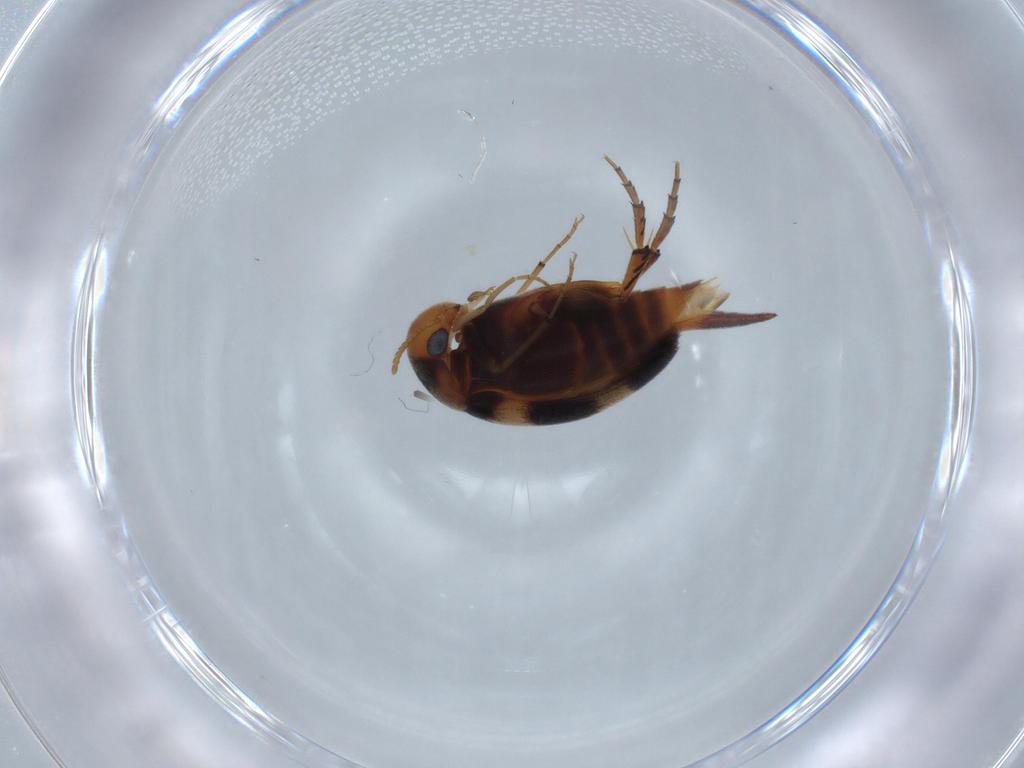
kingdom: Animalia
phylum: Arthropoda
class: Insecta
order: Coleoptera
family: Mordellidae
